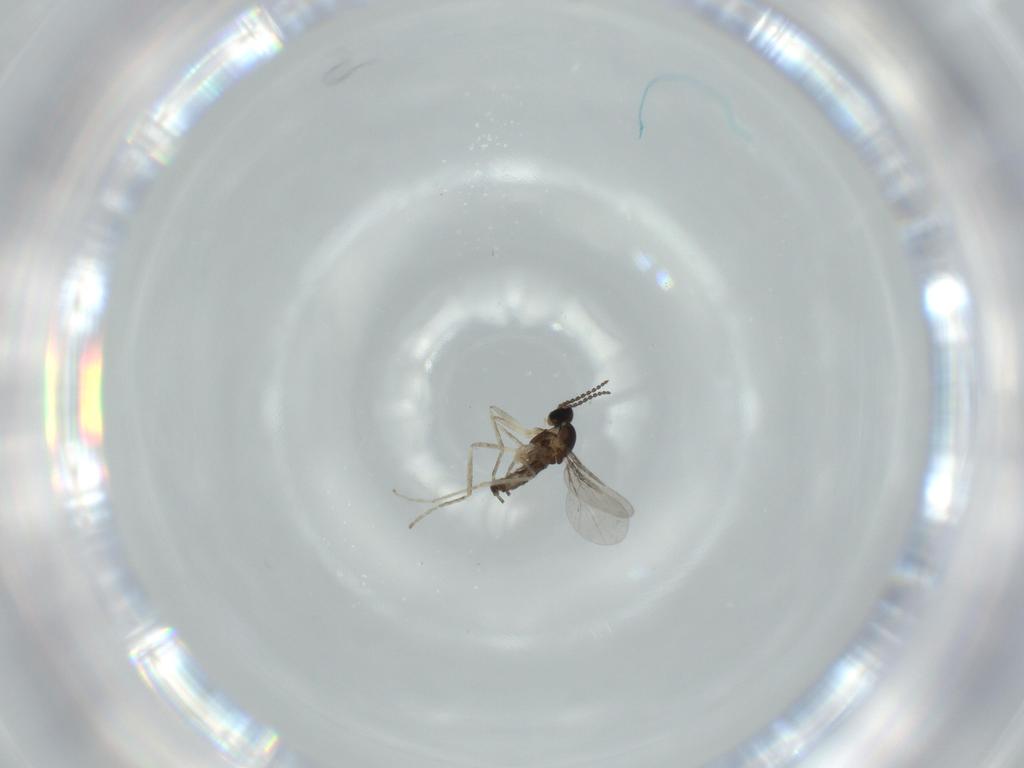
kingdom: Animalia
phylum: Arthropoda
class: Insecta
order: Diptera
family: Cecidomyiidae
